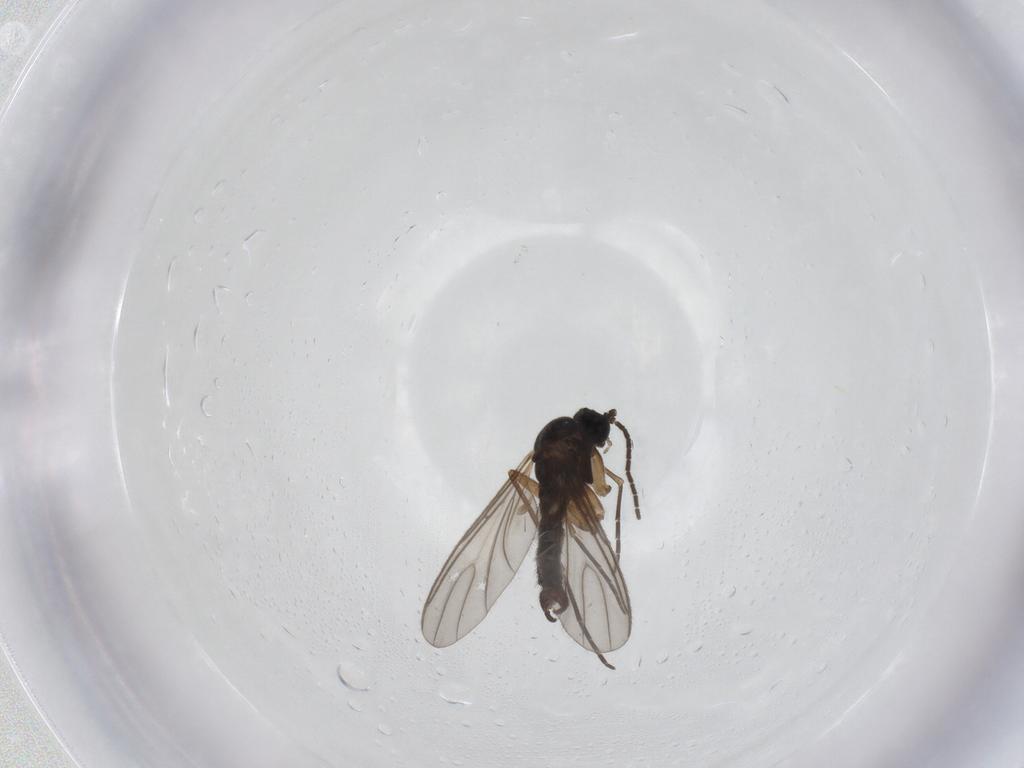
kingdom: Animalia
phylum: Arthropoda
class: Insecta
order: Diptera
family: Sciaridae
